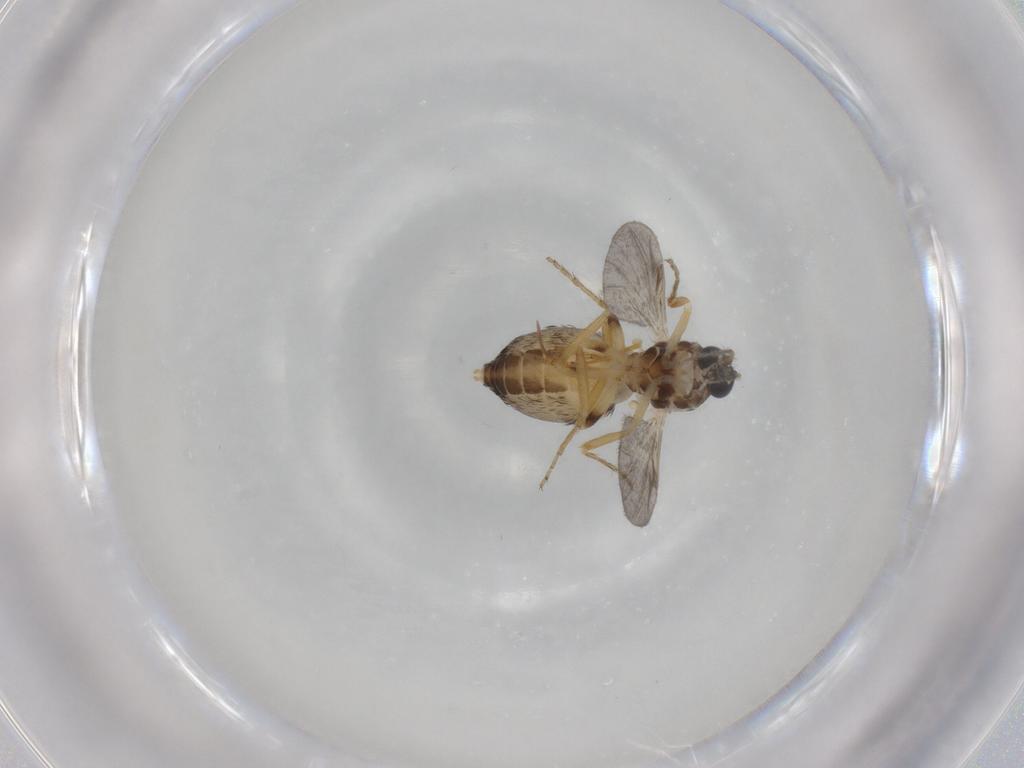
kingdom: Animalia
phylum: Arthropoda
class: Insecta
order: Diptera
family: Ceratopogonidae
